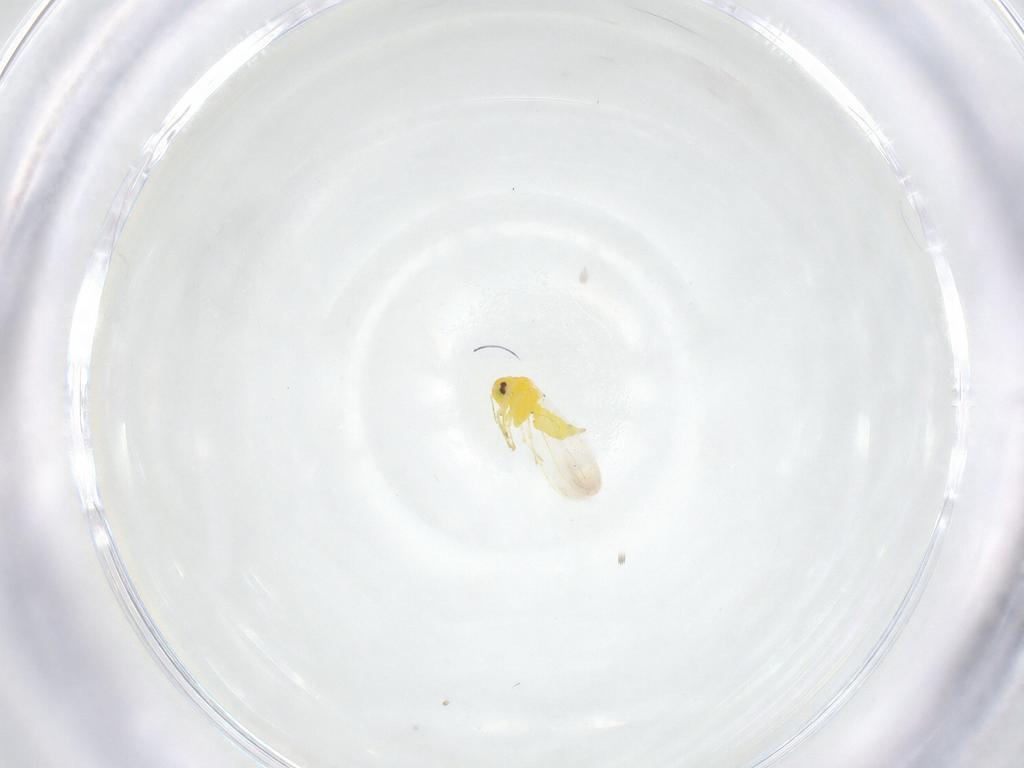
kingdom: Animalia
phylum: Arthropoda
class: Insecta
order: Hemiptera
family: Aleyrodidae
